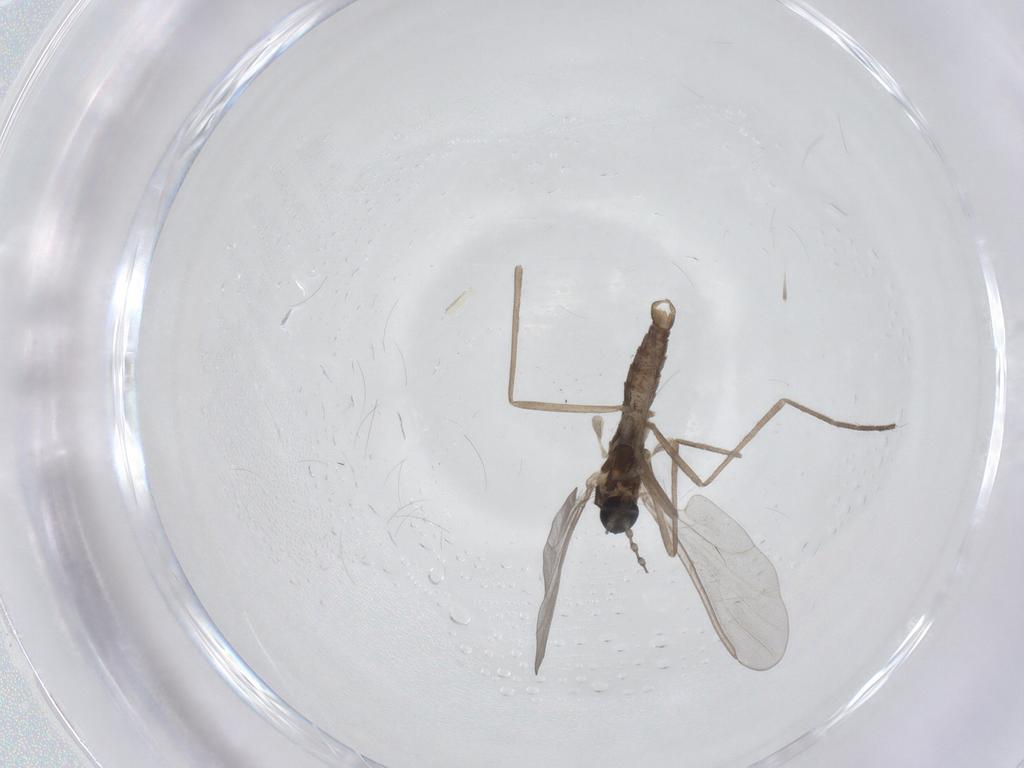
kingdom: Animalia
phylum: Arthropoda
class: Insecta
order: Diptera
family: Cecidomyiidae
